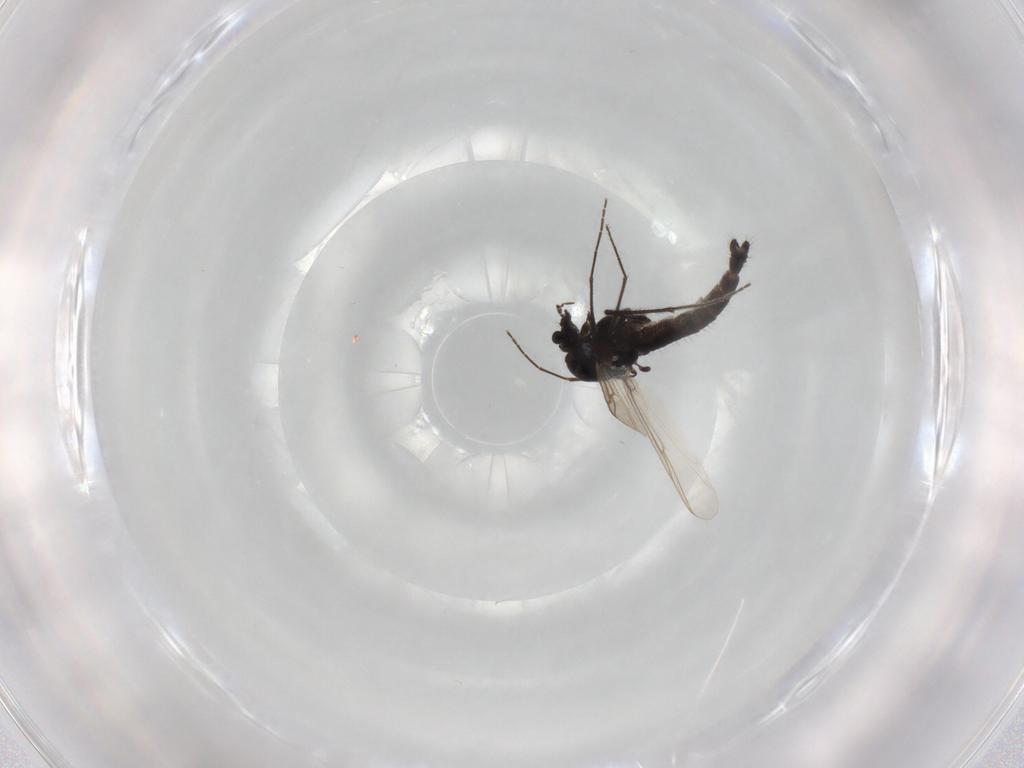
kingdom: Animalia
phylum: Arthropoda
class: Insecta
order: Diptera
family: Chironomidae
